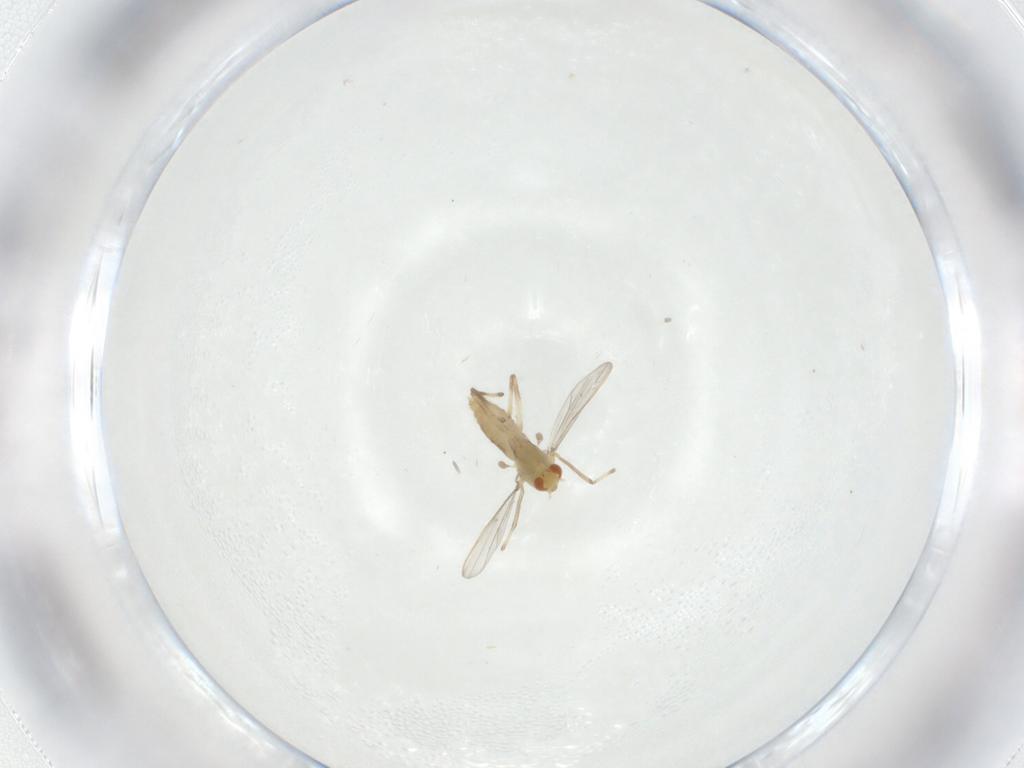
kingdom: Animalia
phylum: Arthropoda
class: Insecta
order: Diptera
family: Chironomidae
